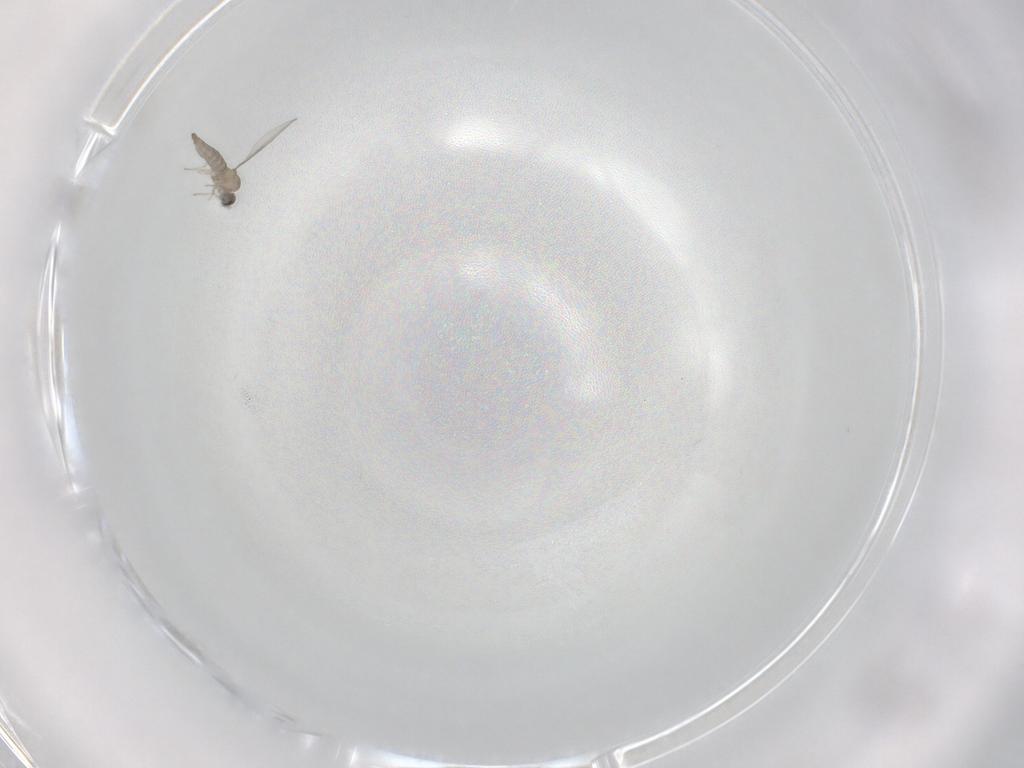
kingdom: Animalia
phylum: Arthropoda
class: Insecta
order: Diptera
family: Cecidomyiidae
